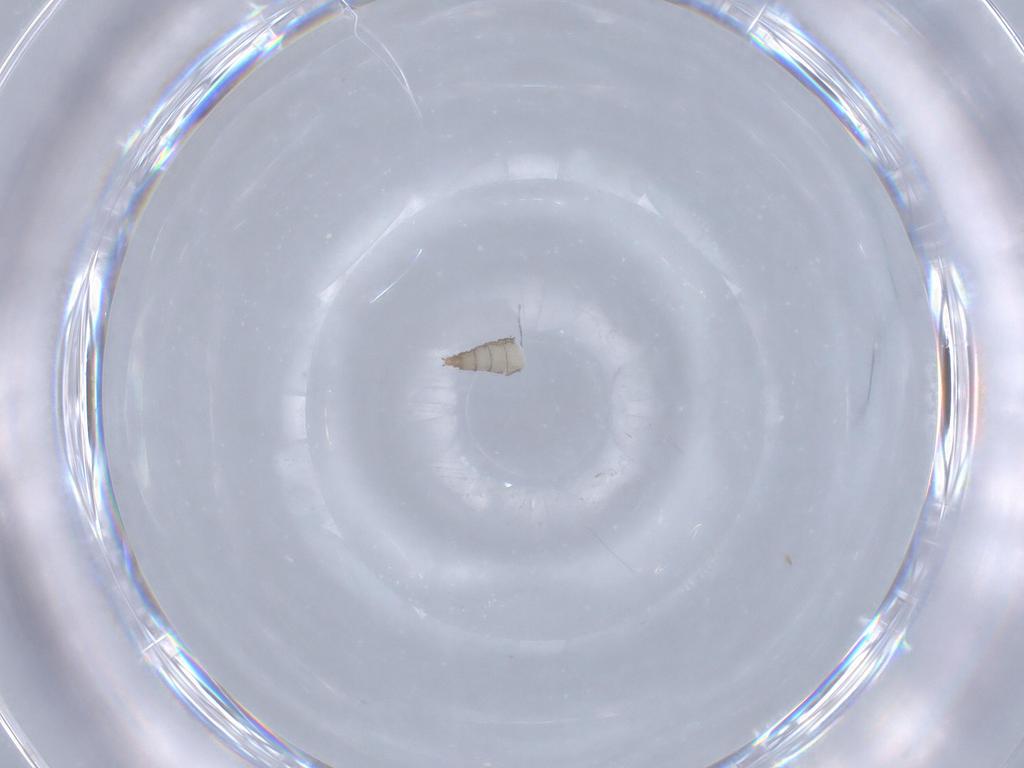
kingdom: Animalia
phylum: Arthropoda
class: Insecta
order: Diptera
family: Cecidomyiidae
